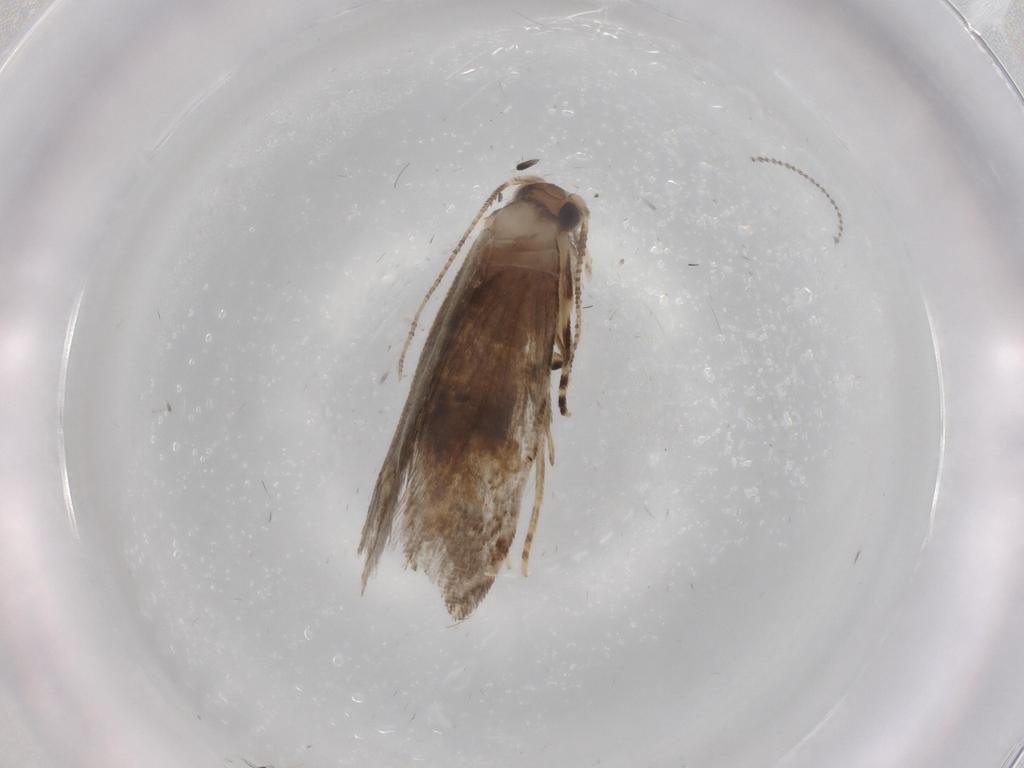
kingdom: Animalia
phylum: Arthropoda
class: Insecta
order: Lepidoptera
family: Tineidae
